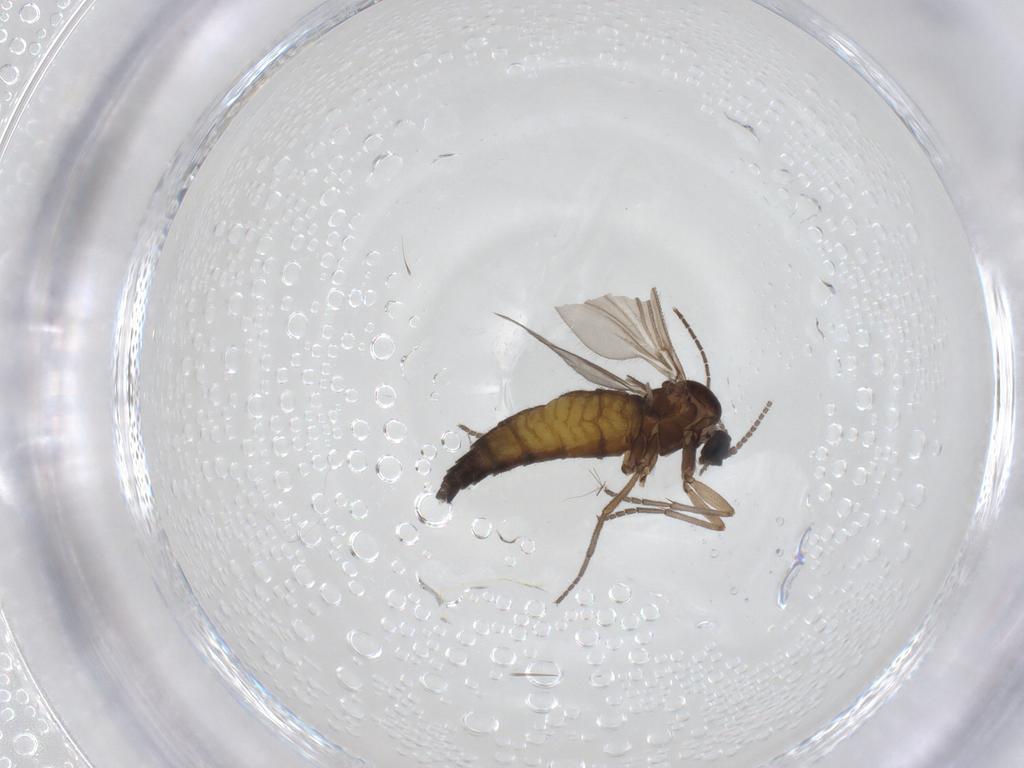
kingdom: Animalia
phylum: Arthropoda
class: Insecta
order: Diptera
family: Sciaridae
